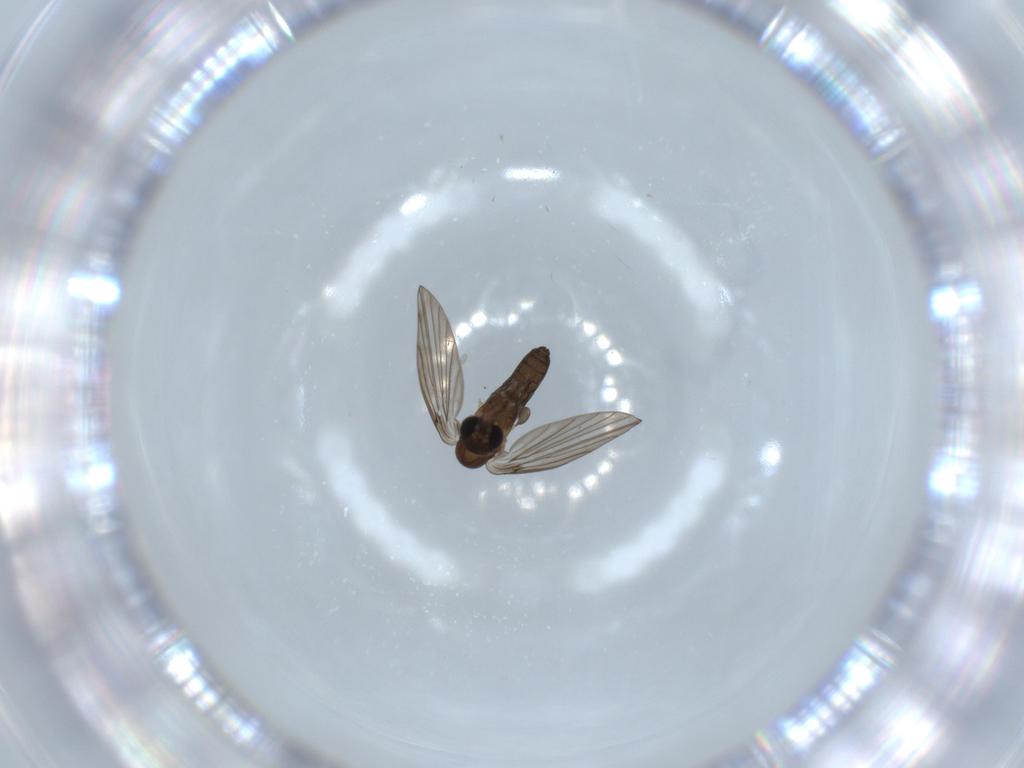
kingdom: Animalia
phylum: Arthropoda
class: Insecta
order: Diptera
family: Psychodidae
